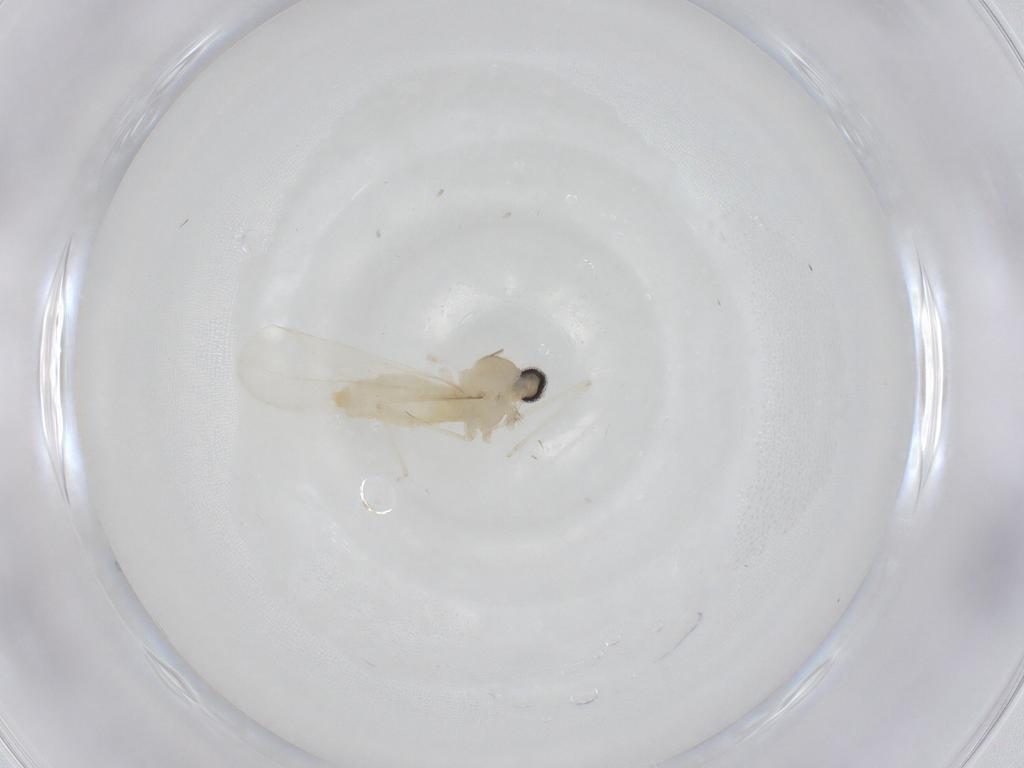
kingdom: Animalia
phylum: Arthropoda
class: Insecta
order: Diptera
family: Cecidomyiidae
